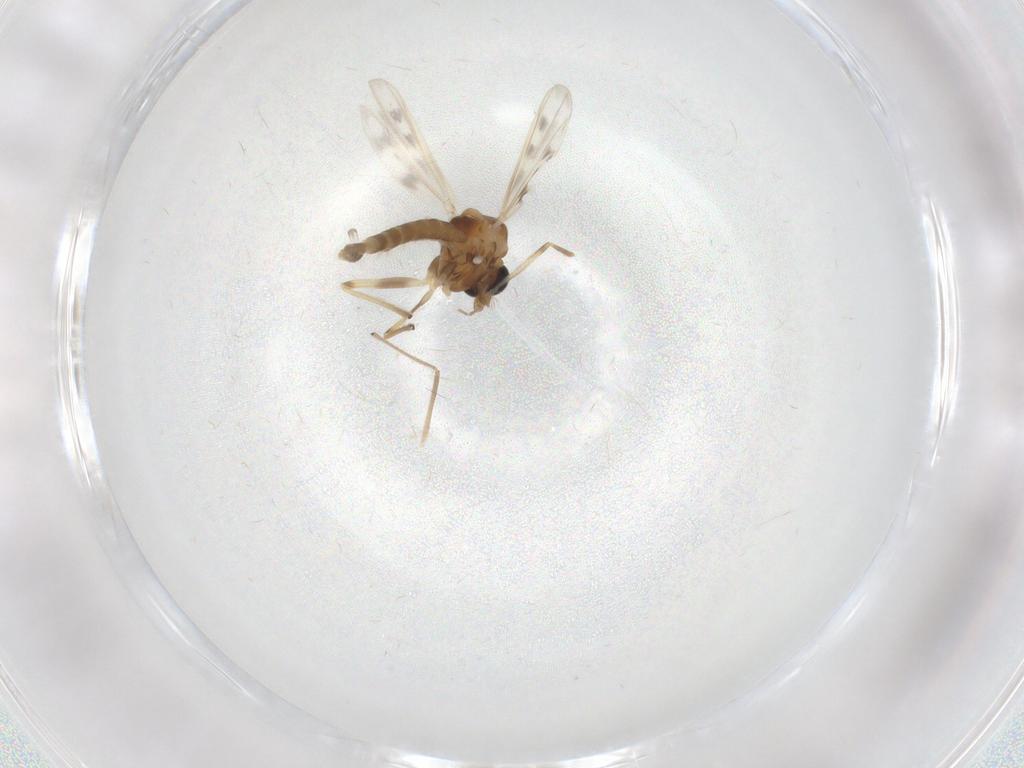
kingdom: Animalia
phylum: Arthropoda
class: Insecta
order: Diptera
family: Chironomidae
